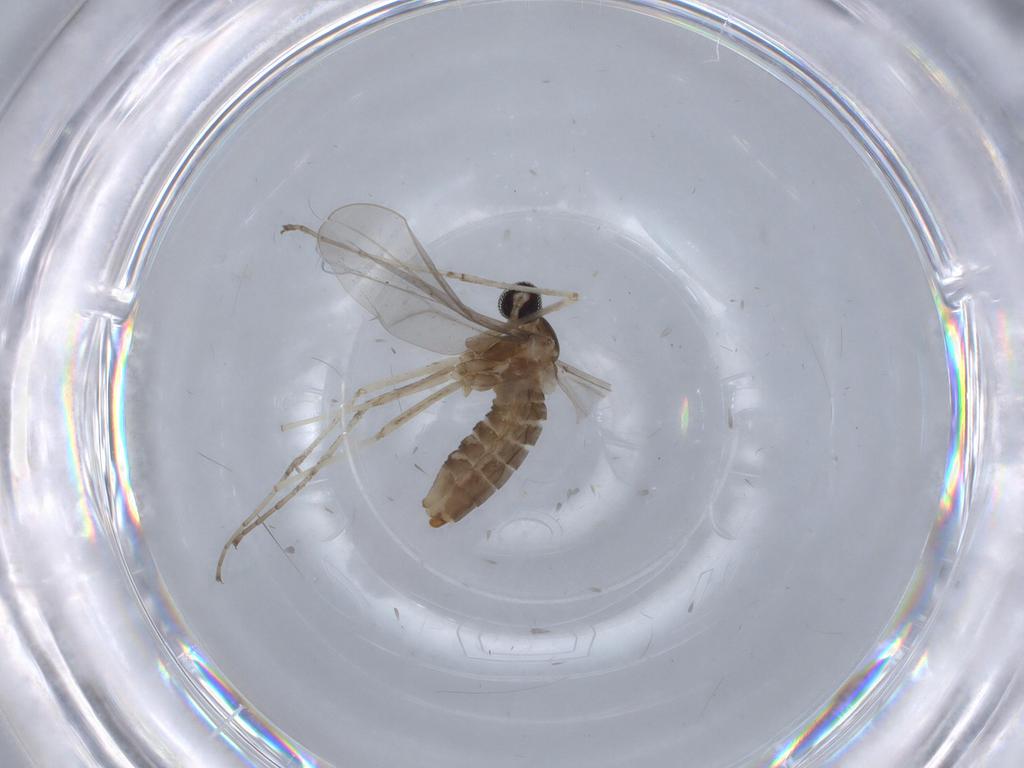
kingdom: Animalia
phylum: Arthropoda
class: Insecta
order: Diptera
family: Cecidomyiidae
